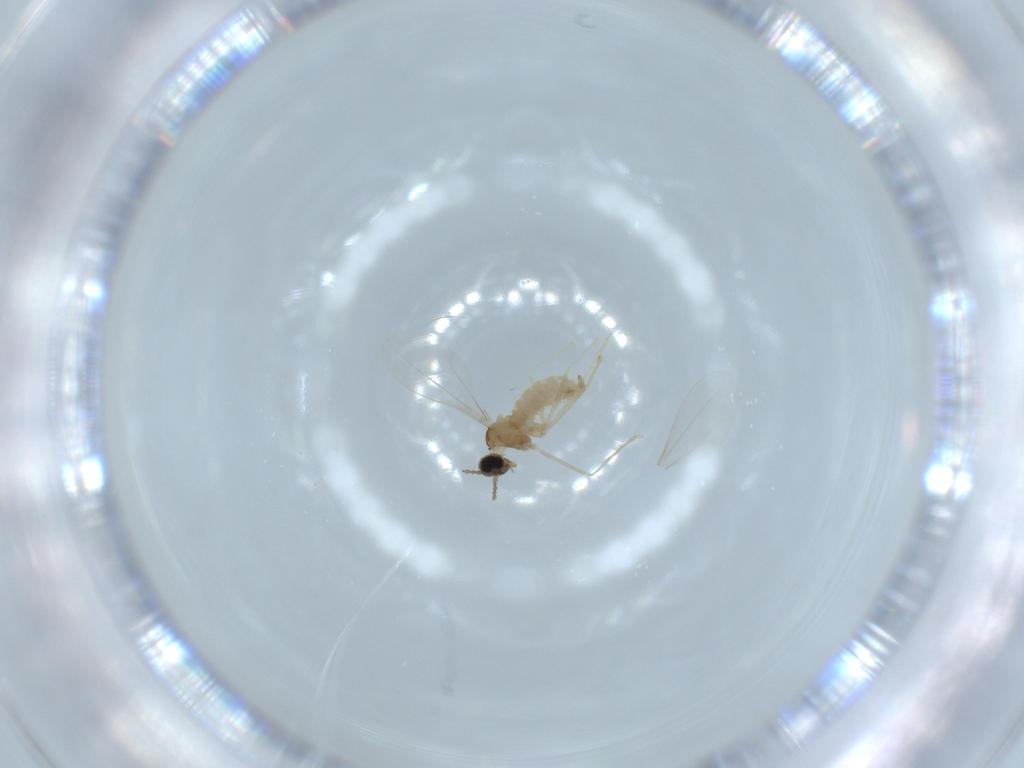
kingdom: Animalia
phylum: Arthropoda
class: Insecta
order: Diptera
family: Cecidomyiidae
